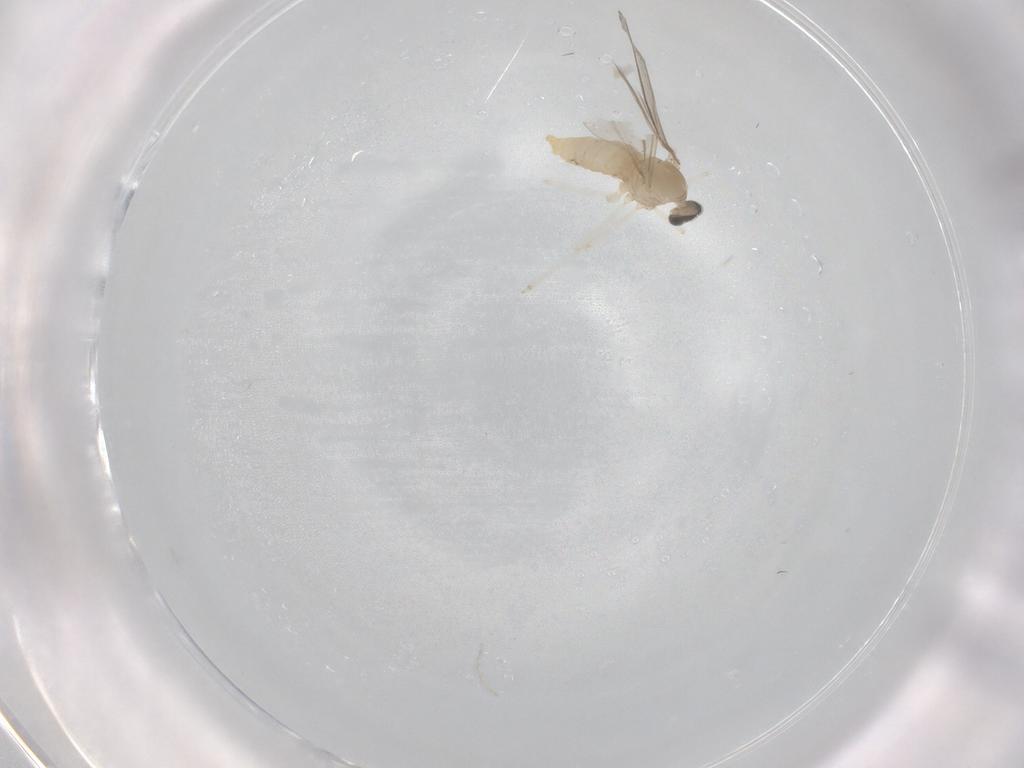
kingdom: Animalia
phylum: Arthropoda
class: Insecta
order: Diptera
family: Cecidomyiidae
